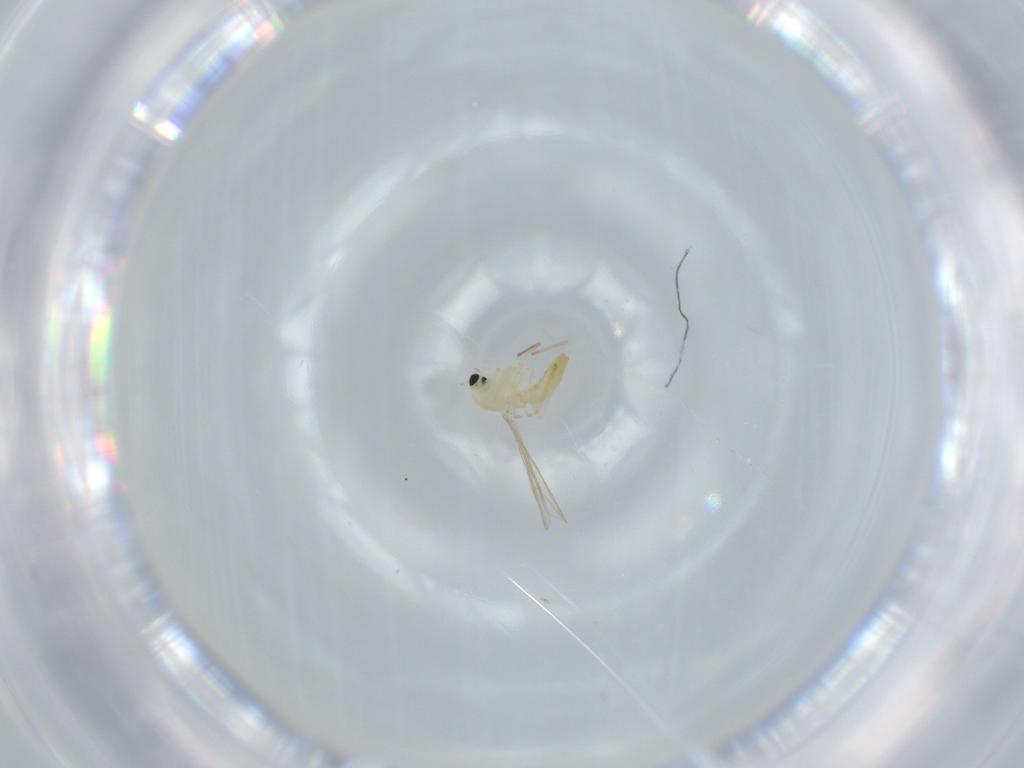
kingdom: Animalia
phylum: Arthropoda
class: Insecta
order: Diptera
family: Chironomidae
